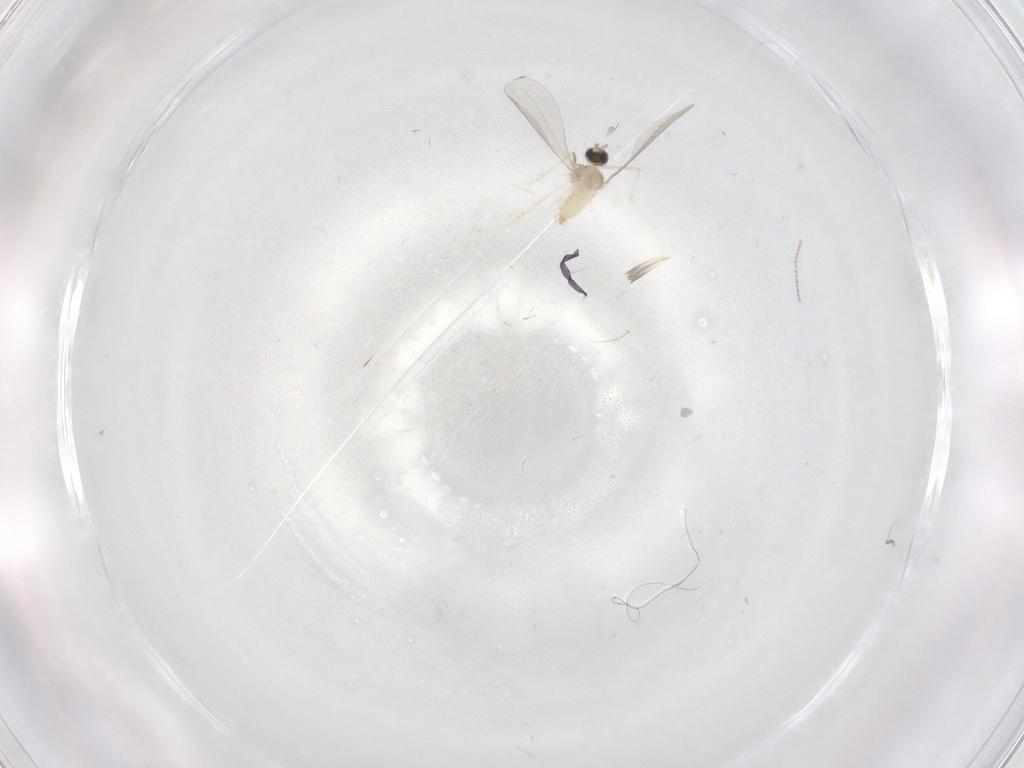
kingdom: Animalia
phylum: Arthropoda
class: Insecta
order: Diptera
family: Cecidomyiidae
